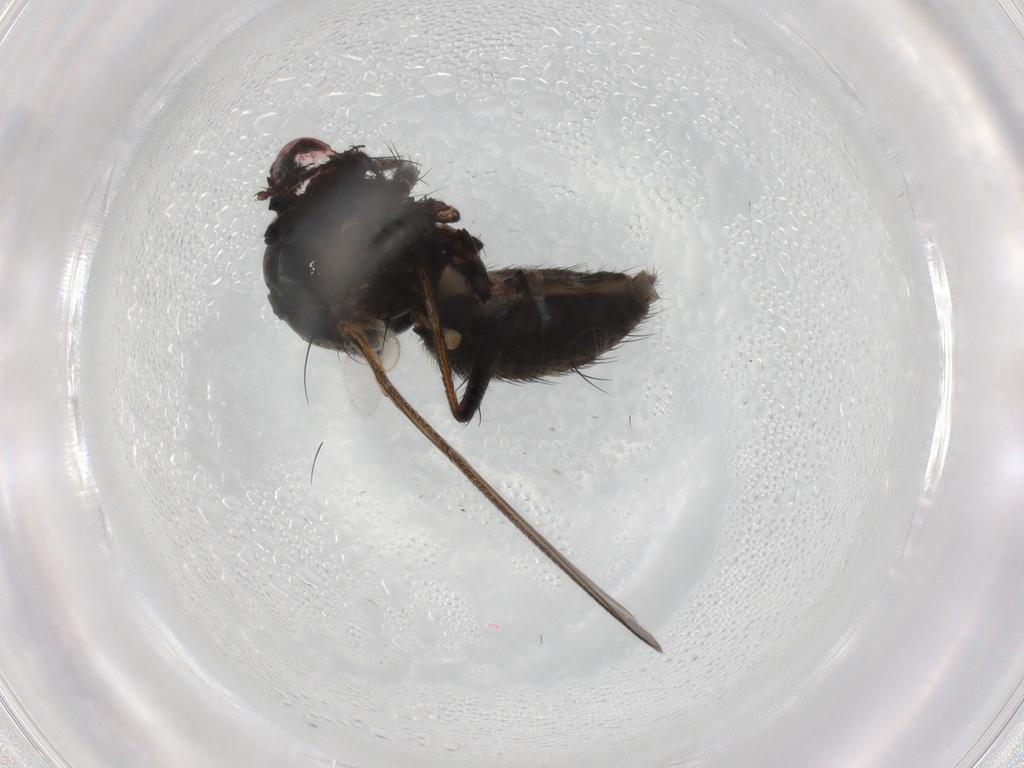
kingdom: Animalia
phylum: Arthropoda
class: Insecta
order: Diptera
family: Dolichopodidae
